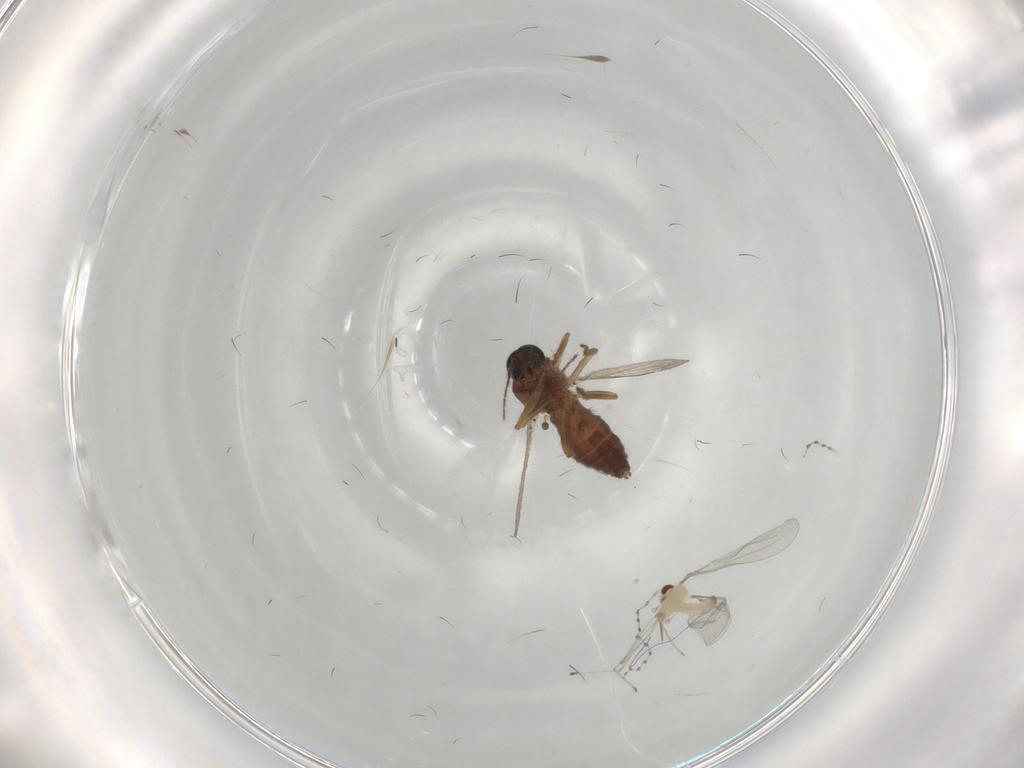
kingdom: Animalia
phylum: Arthropoda
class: Insecta
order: Diptera
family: Ceratopogonidae
